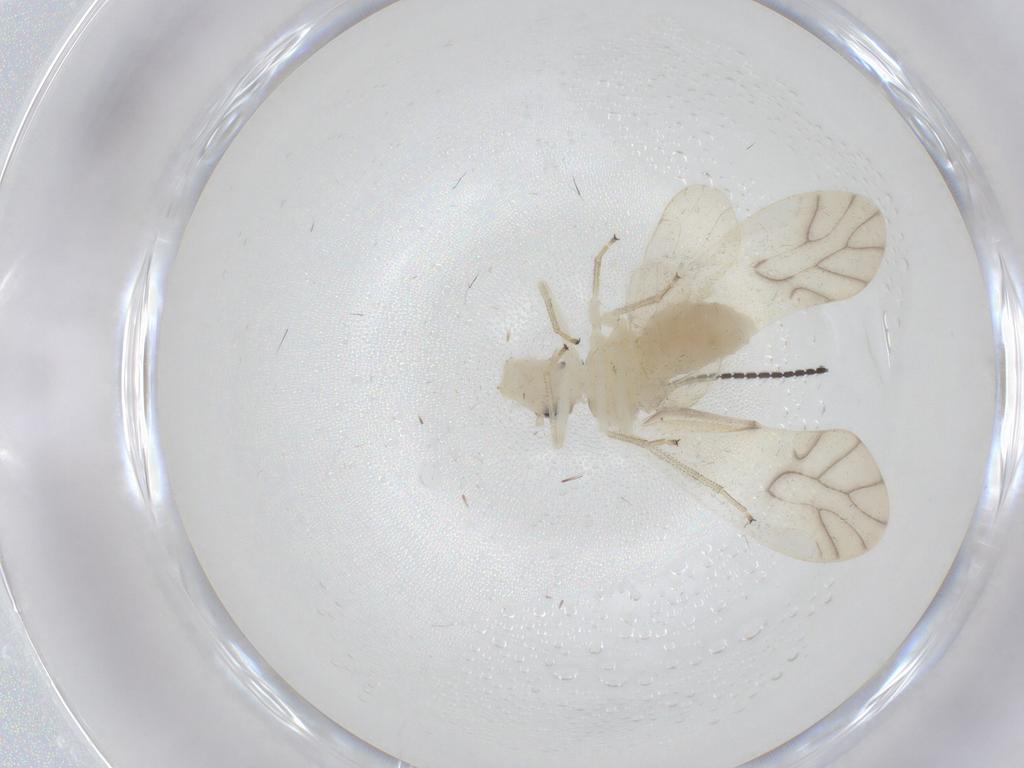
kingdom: Animalia
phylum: Arthropoda
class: Insecta
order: Psocodea
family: Caeciliusidae
